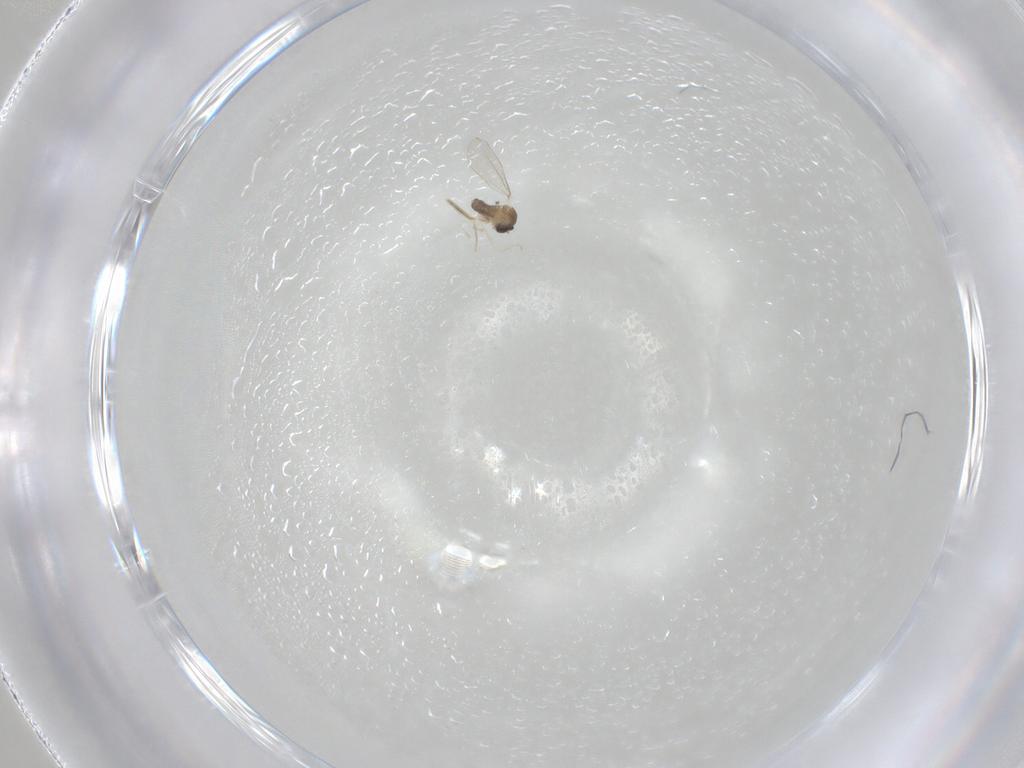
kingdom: Animalia
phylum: Arthropoda
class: Insecta
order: Diptera
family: Cecidomyiidae
